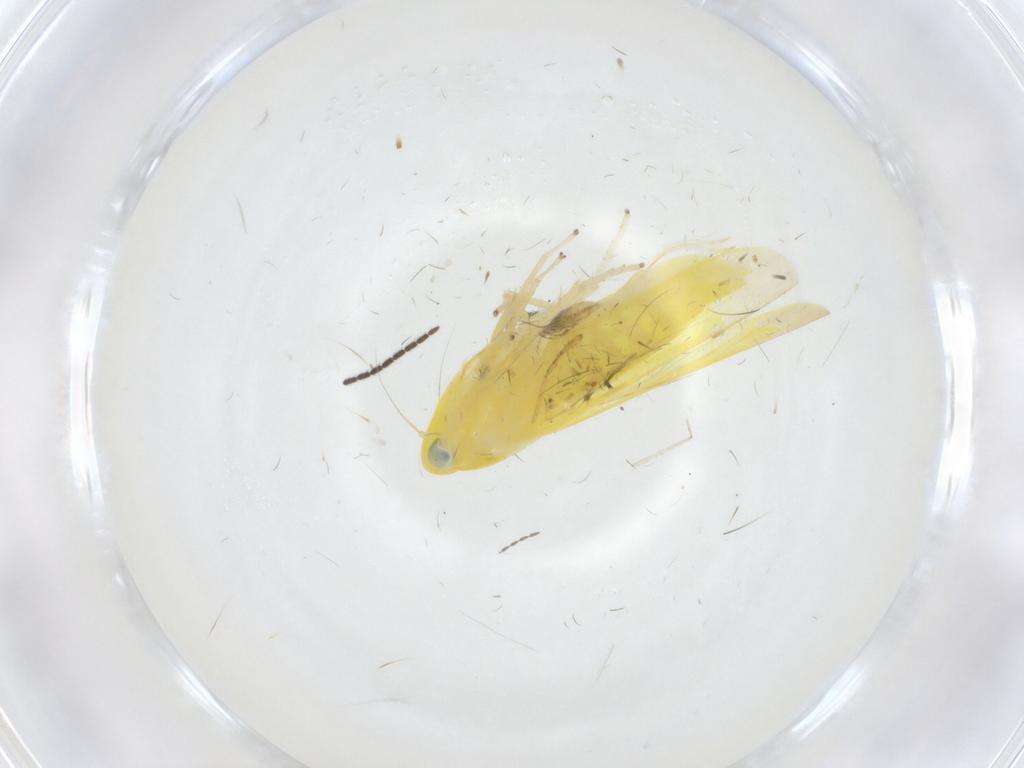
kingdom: Animalia
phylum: Arthropoda
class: Insecta
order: Hemiptera
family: Cicadellidae
